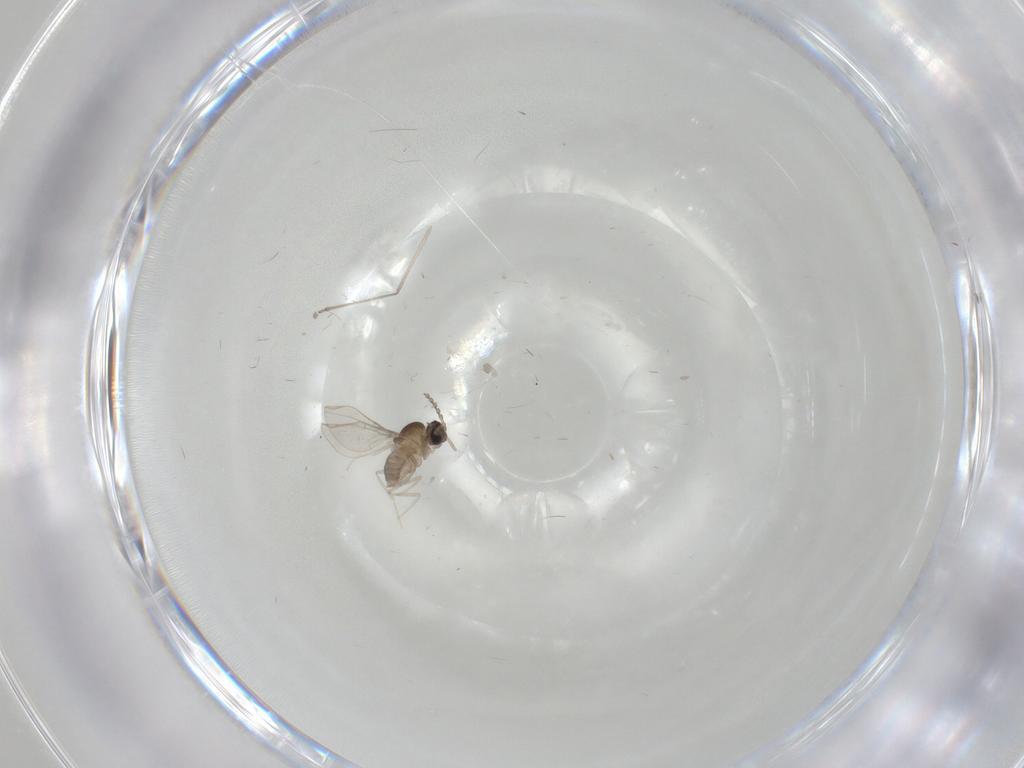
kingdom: Animalia
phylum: Arthropoda
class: Insecta
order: Diptera
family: Cecidomyiidae
